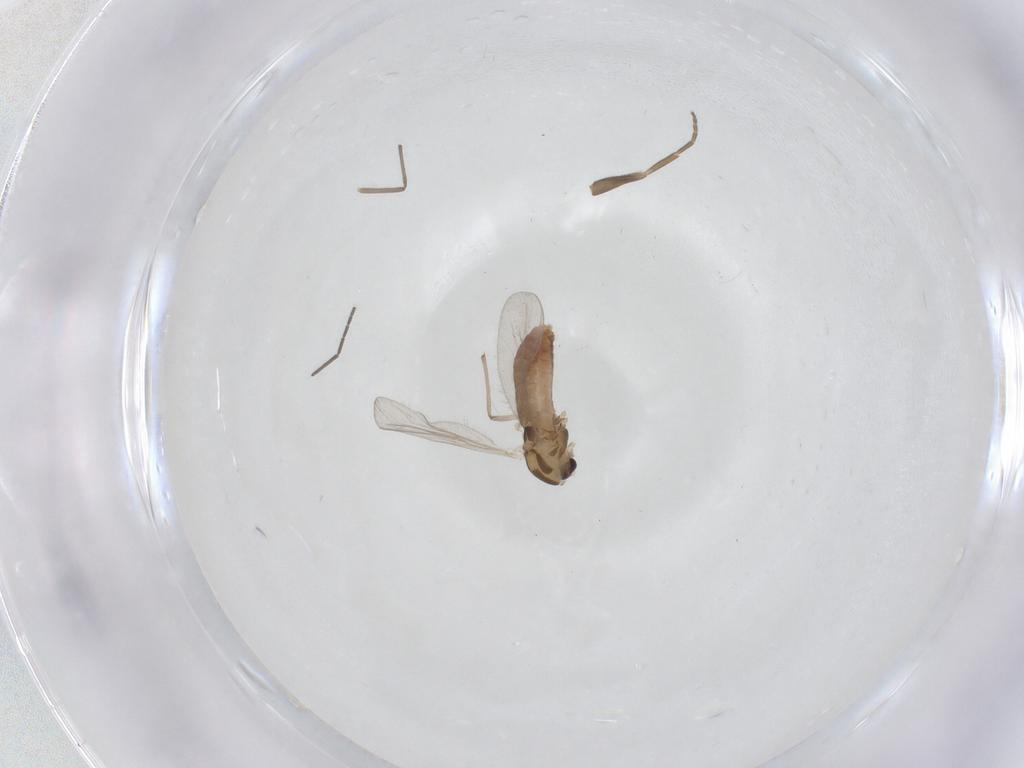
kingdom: Animalia
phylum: Arthropoda
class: Insecta
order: Diptera
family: Chironomidae
